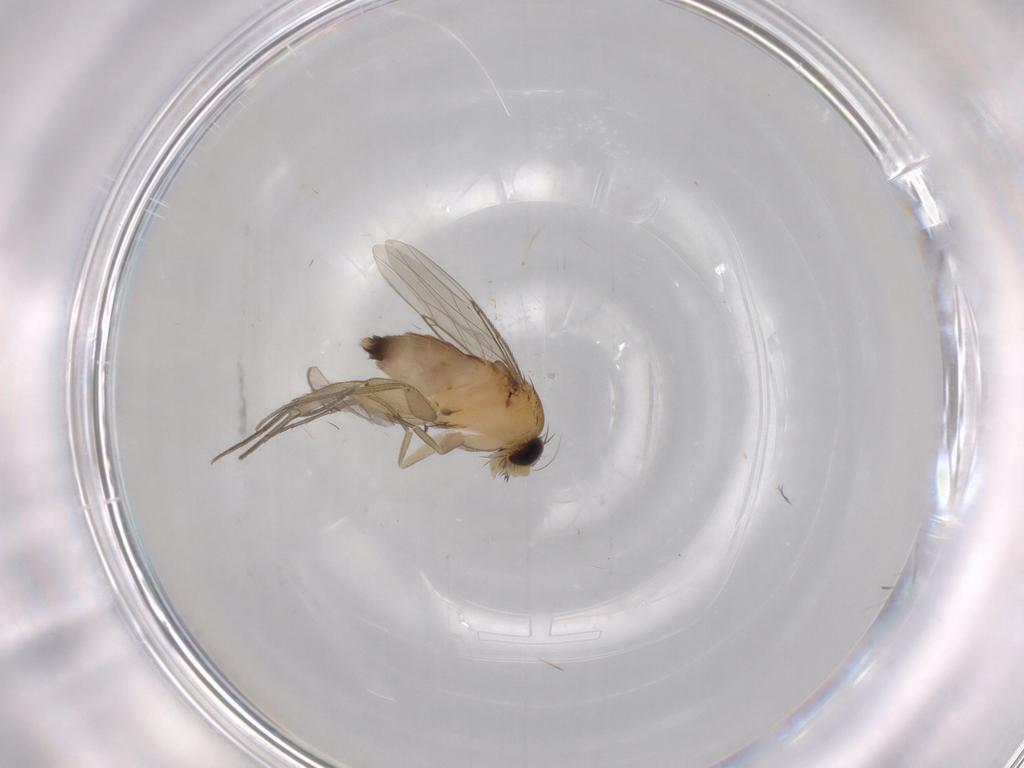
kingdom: Animalia
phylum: Arthropoda
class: Insecta
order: Diptera
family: Phoridae
